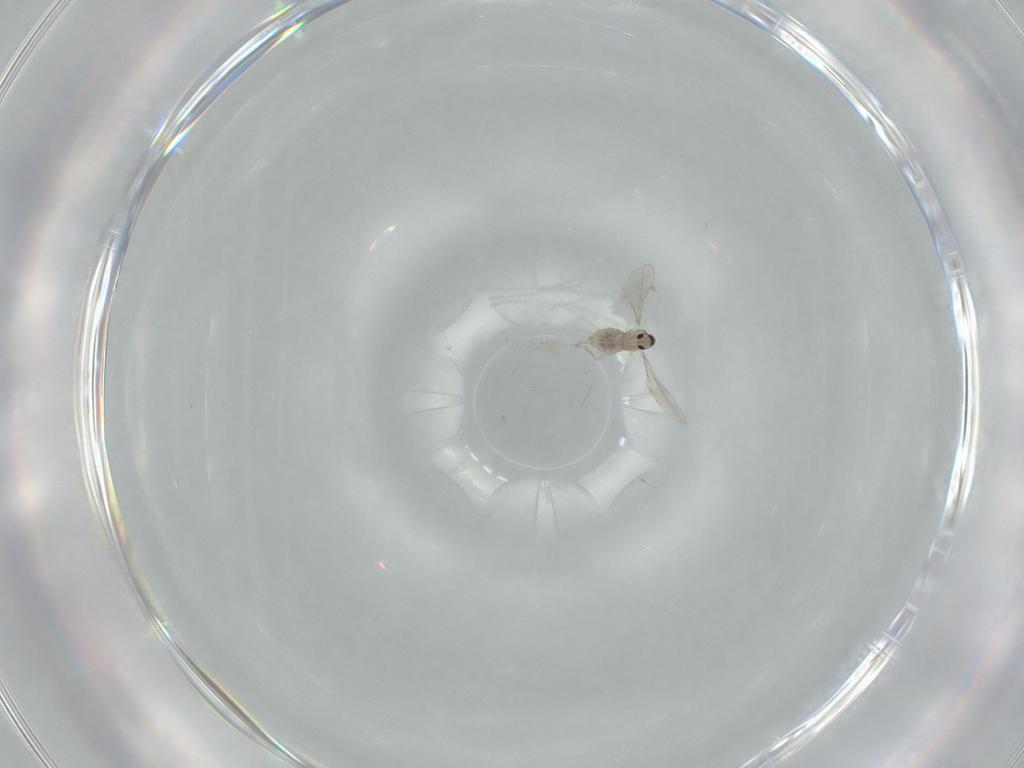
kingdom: Animalia
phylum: Arthropoda
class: Insecta
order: Diptera
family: Cecidomyiidae
